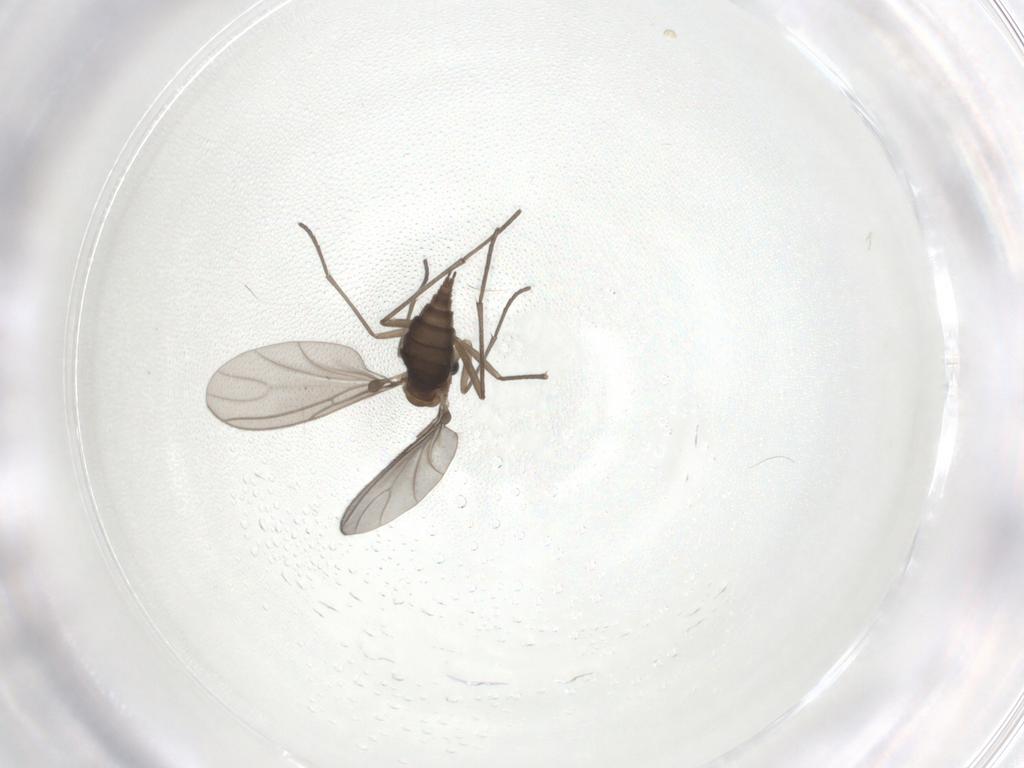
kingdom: Animalia
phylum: Arthropoda
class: Insecta
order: Diptera
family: Sciaridae
